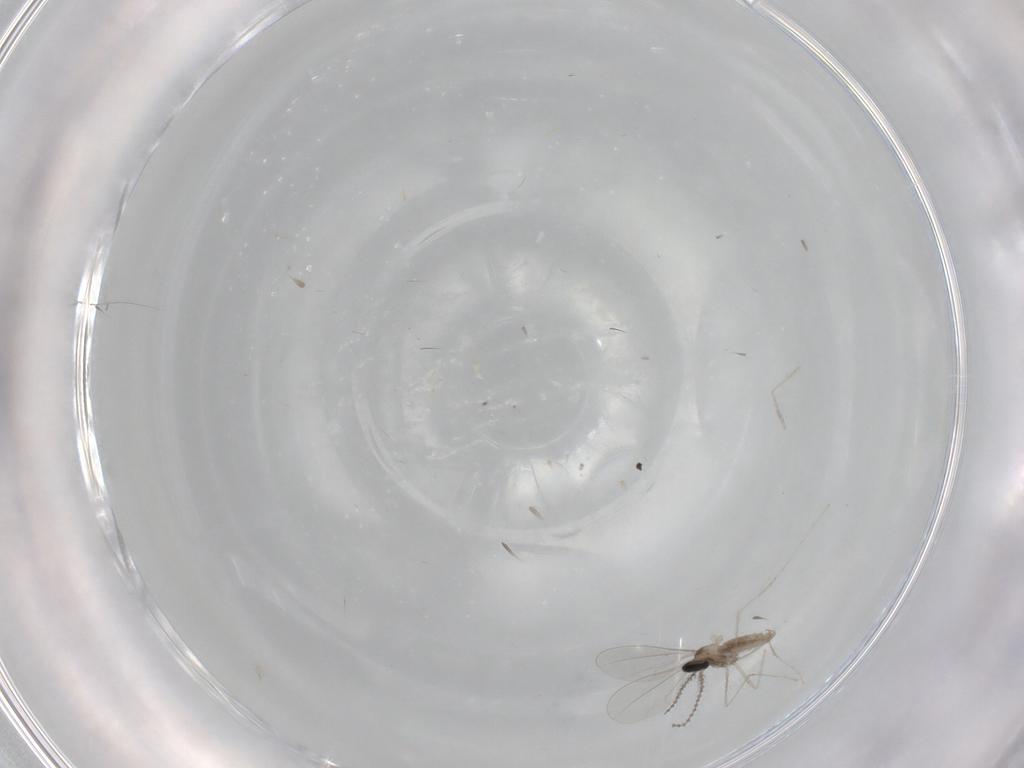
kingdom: Animalia
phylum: Arthropoda
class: Insecta
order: Diptera
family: Cecidomyiidae
